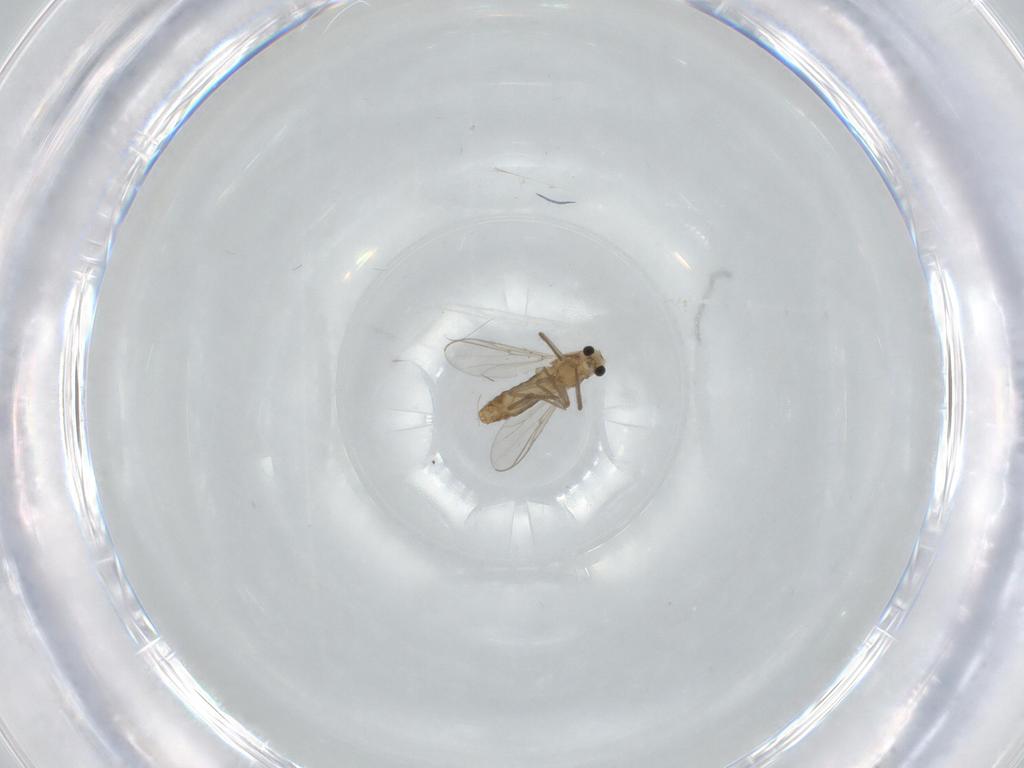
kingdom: Animalia
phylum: Arthropoda
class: Insecta
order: Diptera
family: Chironomidae
